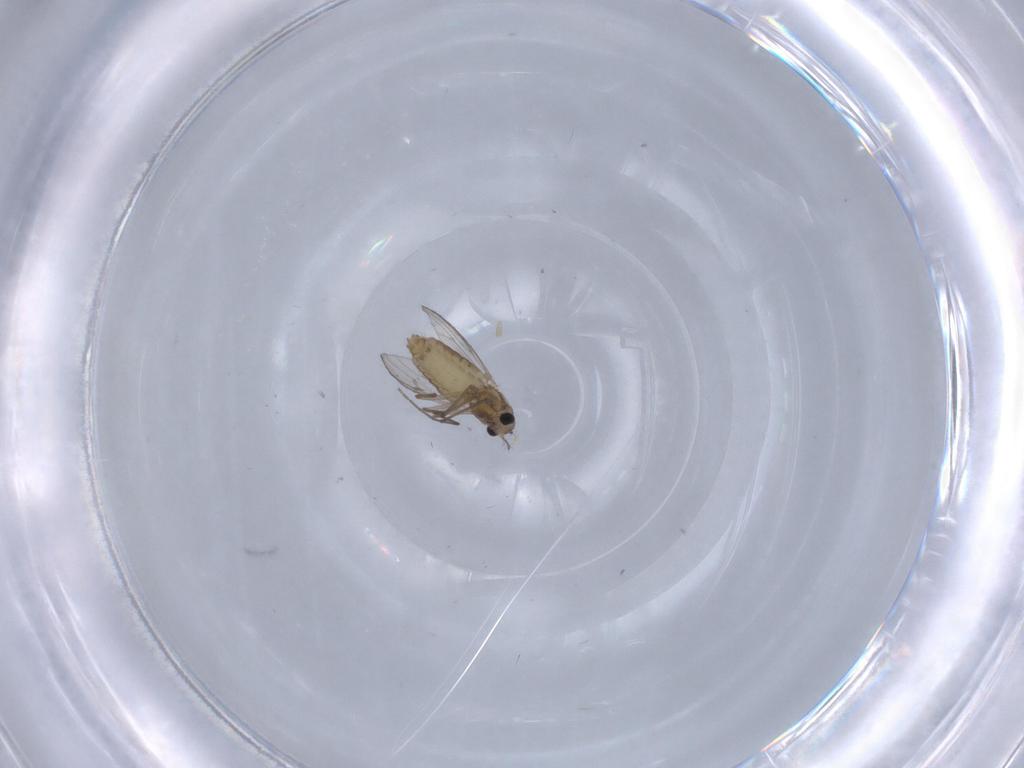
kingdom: Animalia
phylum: Arthropoda
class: Insecta
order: Diptera
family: Chironomidae
